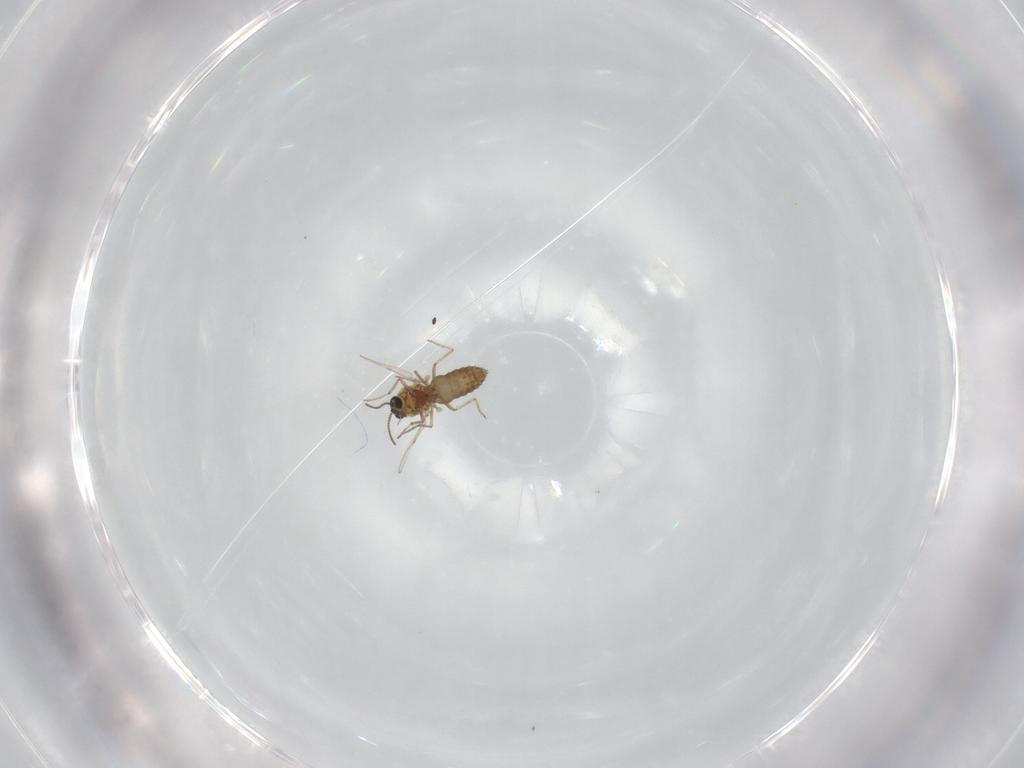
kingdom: Animalia
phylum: Arthropoda
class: Insecta
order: Diptera
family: Ceratopogonidae
